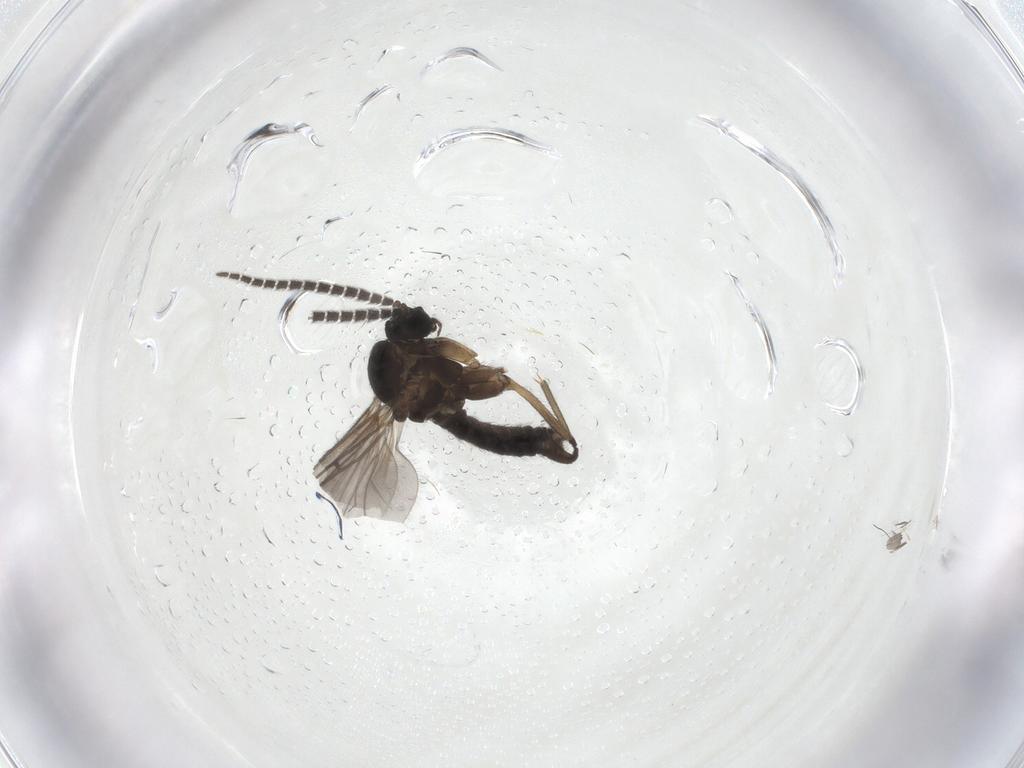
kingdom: Animalia
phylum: Arthropoda
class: Insecta
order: Diptera
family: Sciaridae
